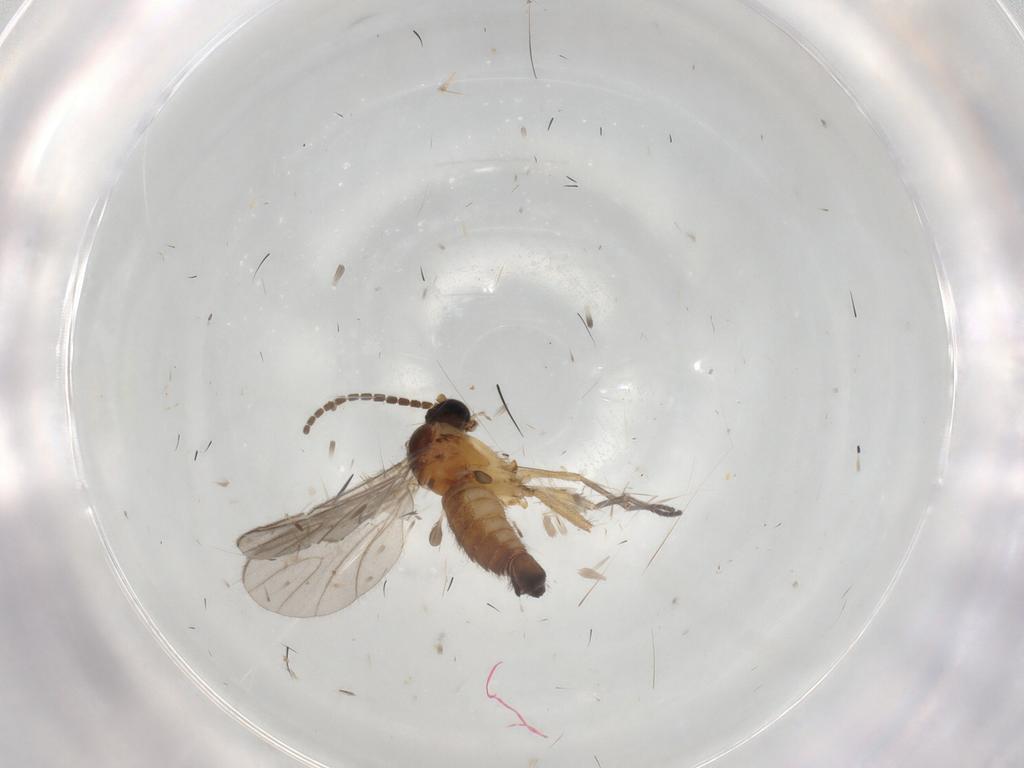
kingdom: Animalia
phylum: Arthropoda
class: Insecta
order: Diptera
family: Sciaridae
